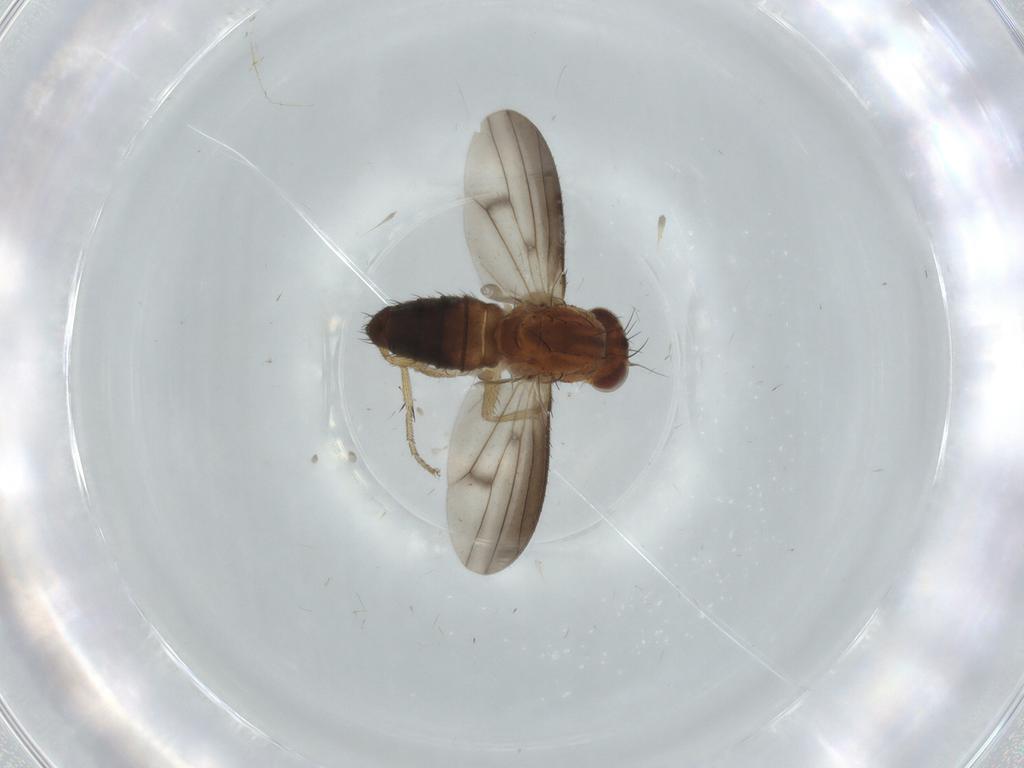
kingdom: Animalia
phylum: Arthropoda
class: Insecta
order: Diptera
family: Heleomyzidae
